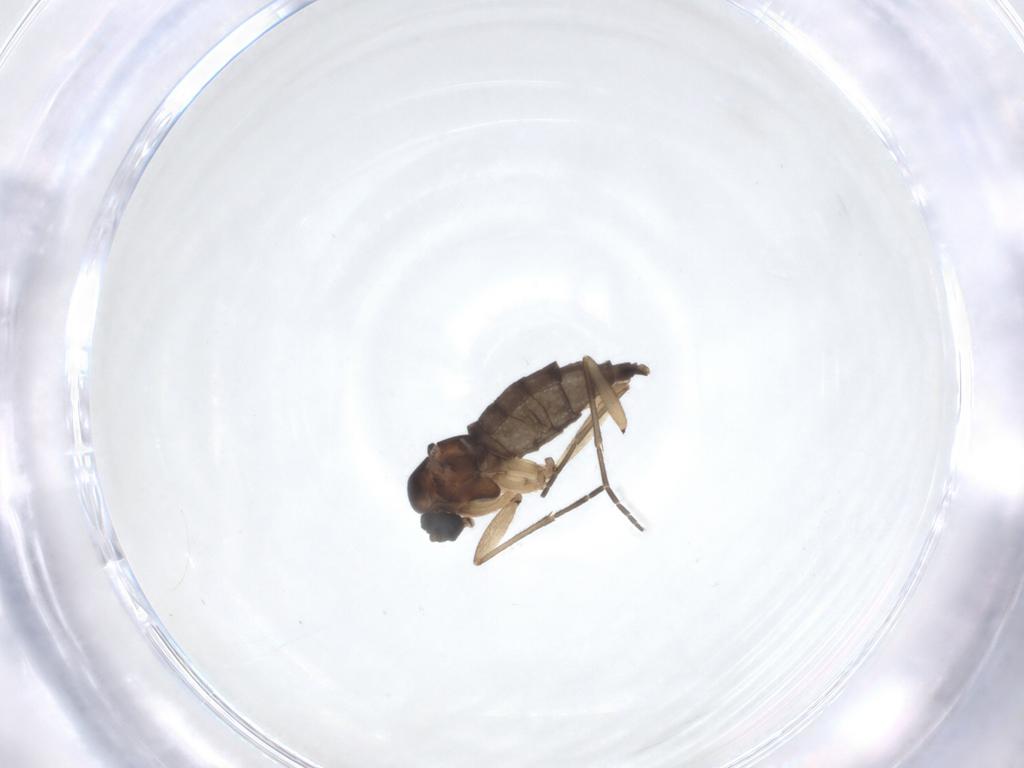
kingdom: Animalia
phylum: Arthropoda
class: Insecta
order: Diptera
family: Sciaridae
